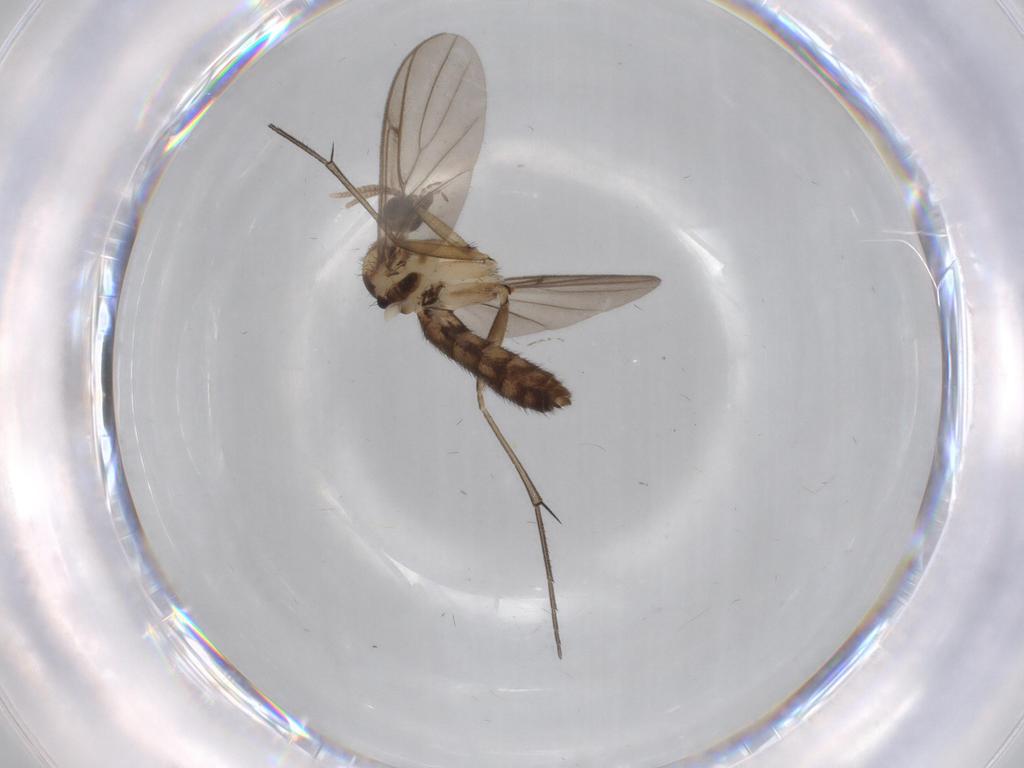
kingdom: Animalia
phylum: Arthropoda
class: Insecta
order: Diptera
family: Keroplatidae
